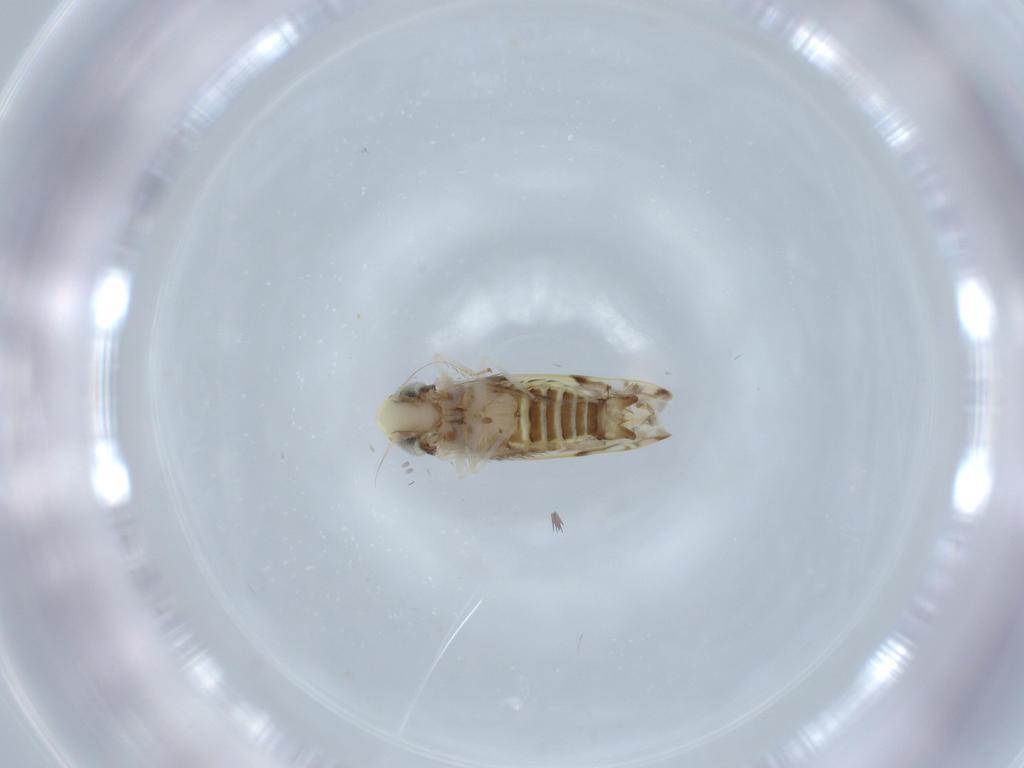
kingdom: Animalia
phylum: Arthropoda
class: Insecta
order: Hemiptera
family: Cicadellidae
